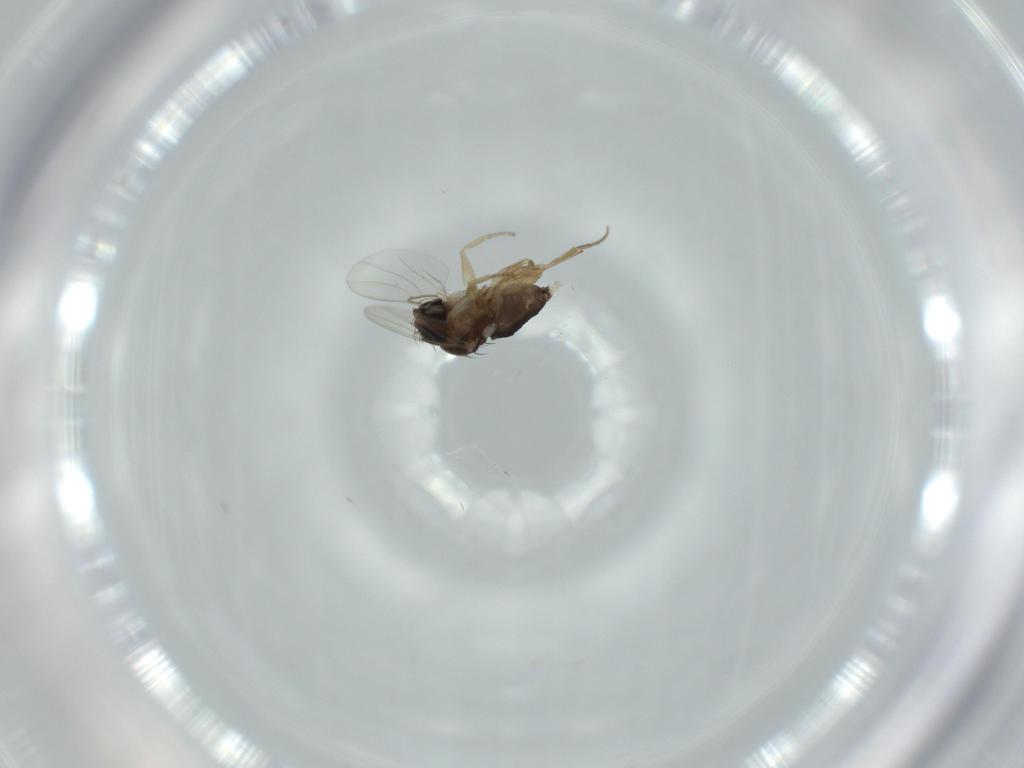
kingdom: Animalia
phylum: Arthropoda
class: Insecta
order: Diptera
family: Phoridae
